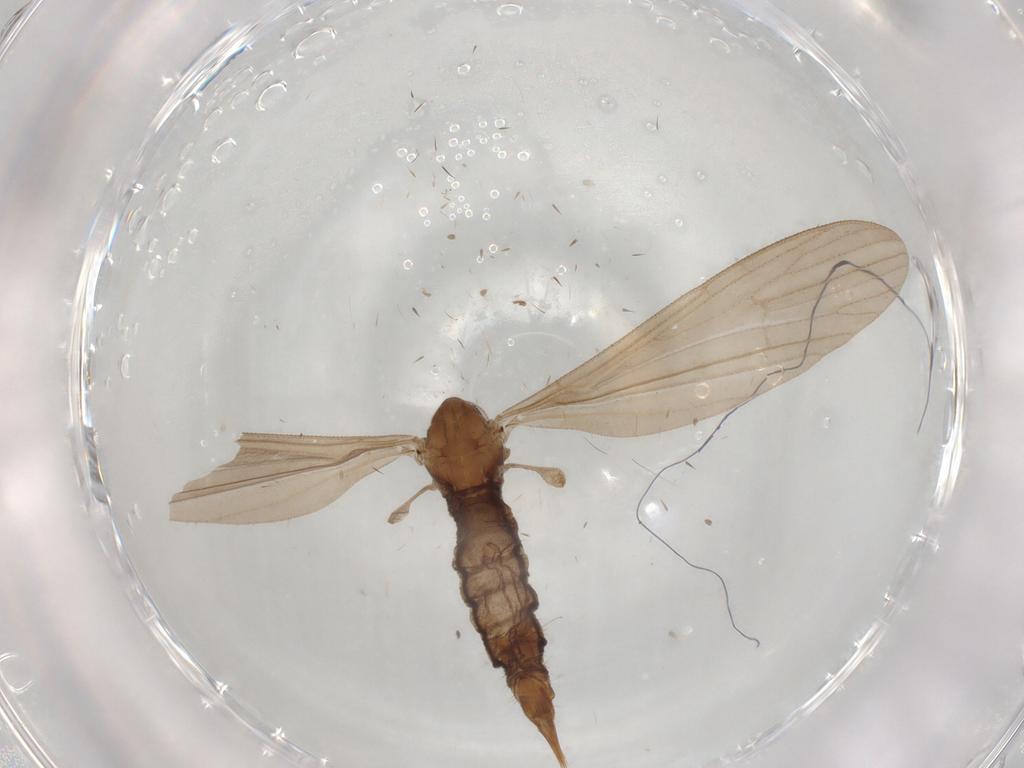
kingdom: Animalia
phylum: Arthropoda
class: Insecta
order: Diptera
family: Limoniidae
